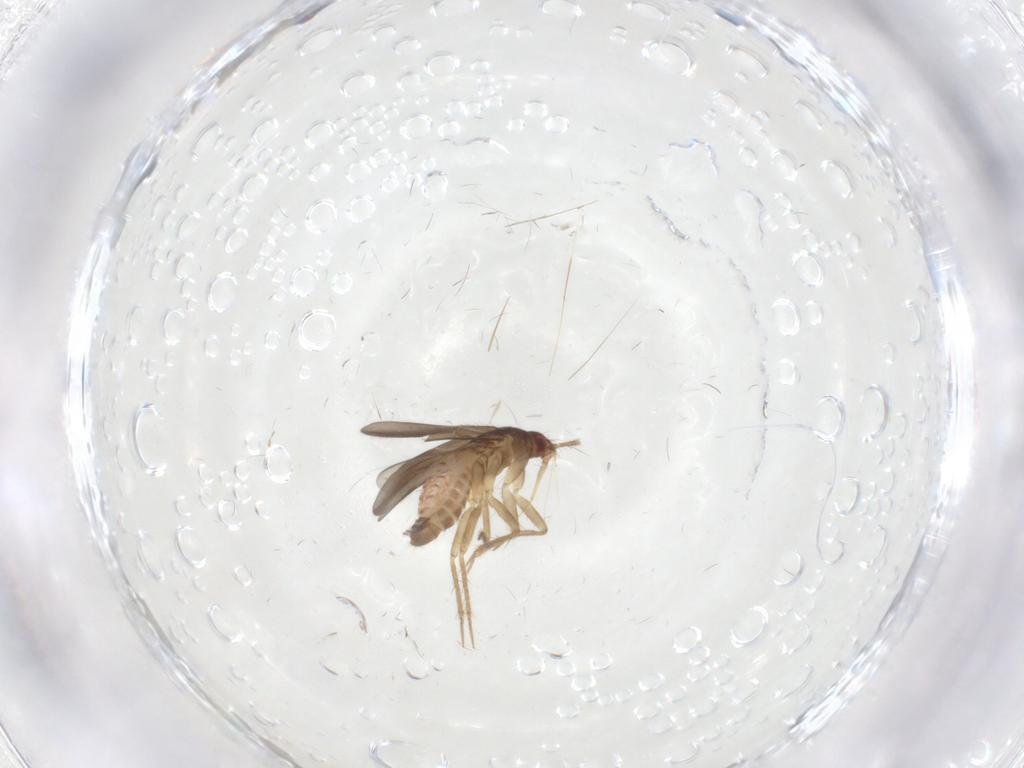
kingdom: Animalia
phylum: Arthropoda
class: Insecta
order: Hemiptera
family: Ceratocombidae
